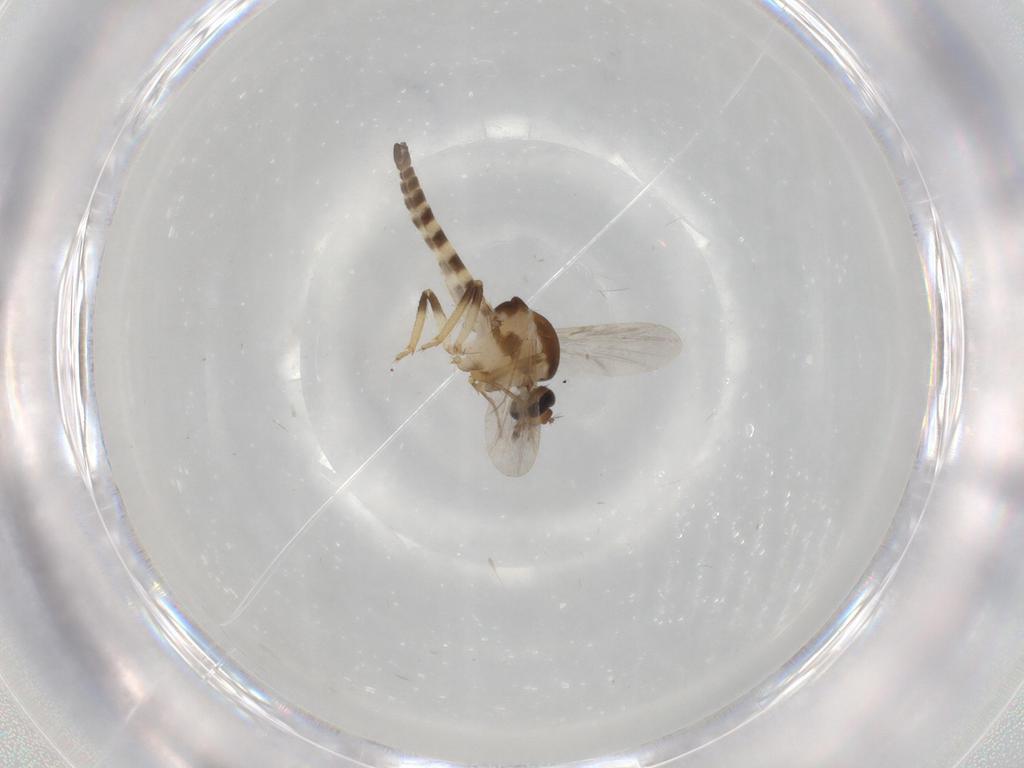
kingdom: Animalia
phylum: Arthropoda
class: Insecta
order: Diptera
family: Ceratopogonidae
